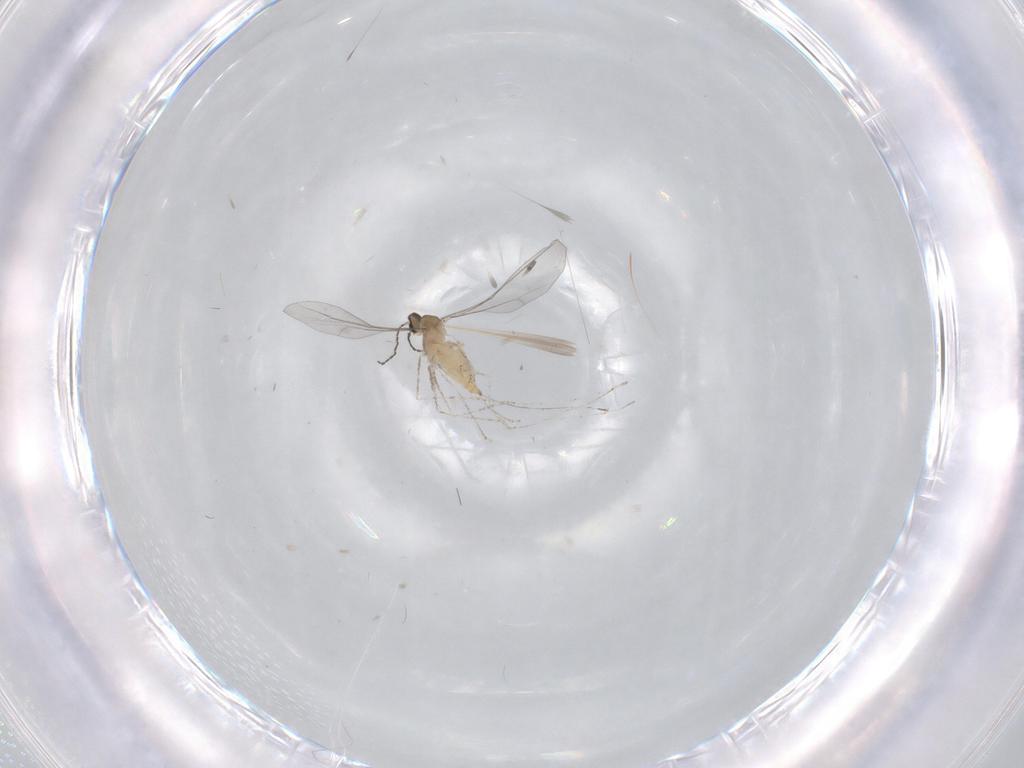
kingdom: Animalia
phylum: Arthropoda
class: Insecta
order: Diptera
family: Cecidomyiidae
